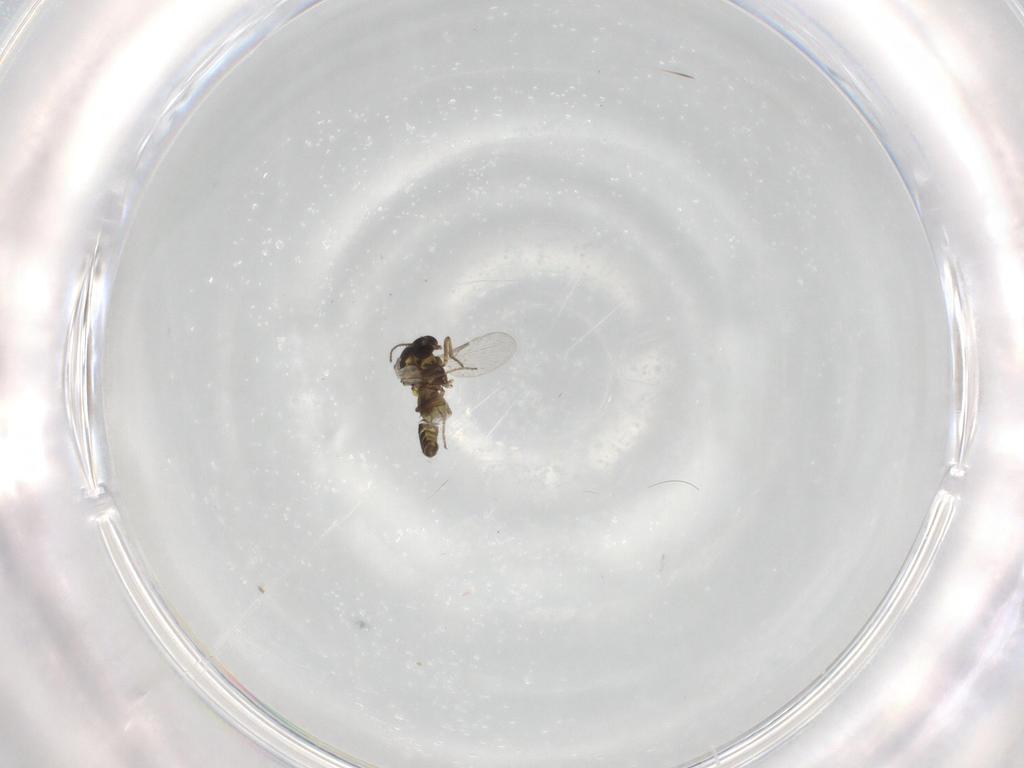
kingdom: Animalia
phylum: Arthropoda
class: Insecta
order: Diptera
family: Ceratopogonidae
